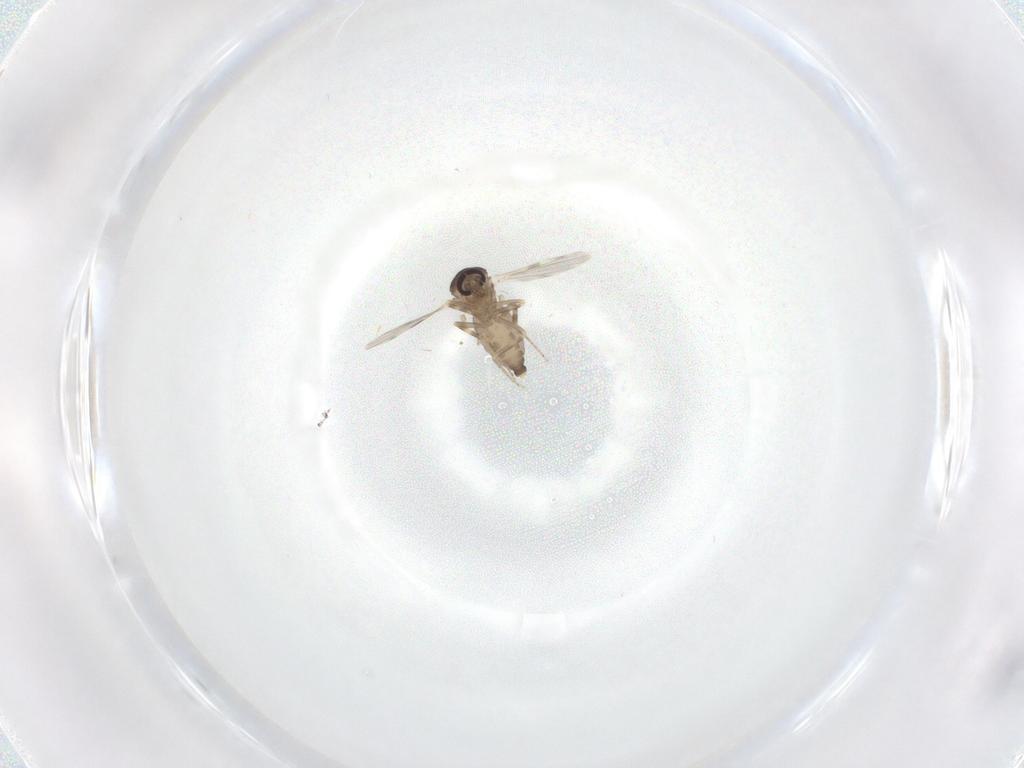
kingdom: Animalia
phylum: Arthropoda
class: Insecta
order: Diptera
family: Ceratopogonidae
